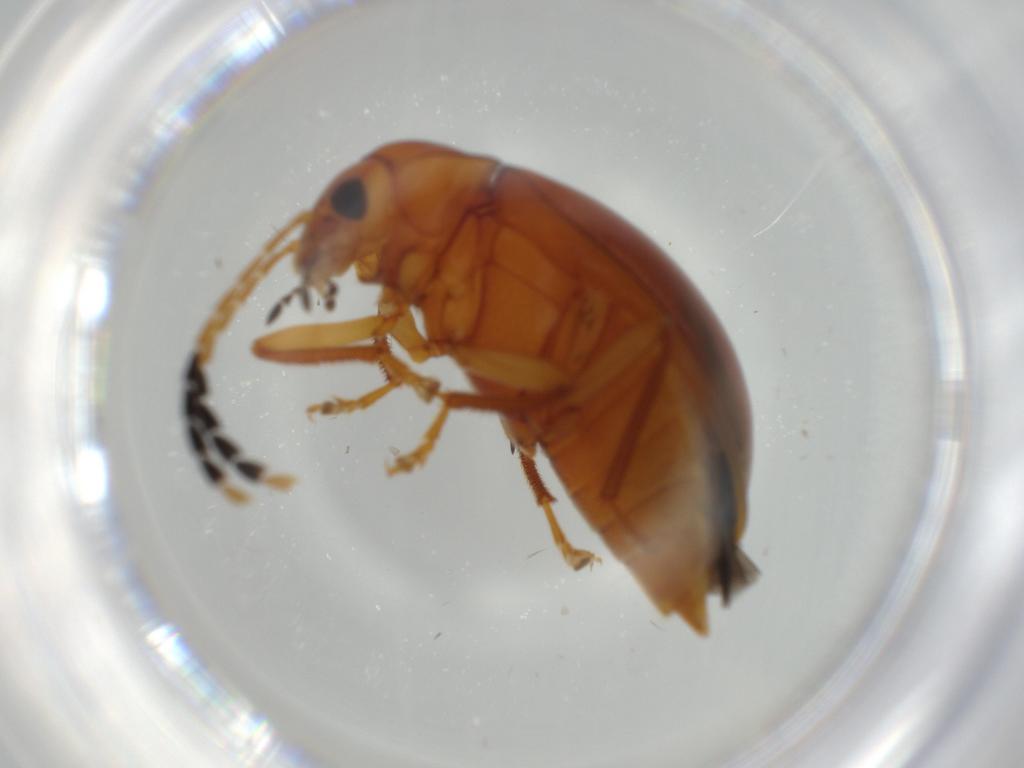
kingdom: Animalia
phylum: Arthropoda
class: Insecta
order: Coleoptera
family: Ptilodactylidae
